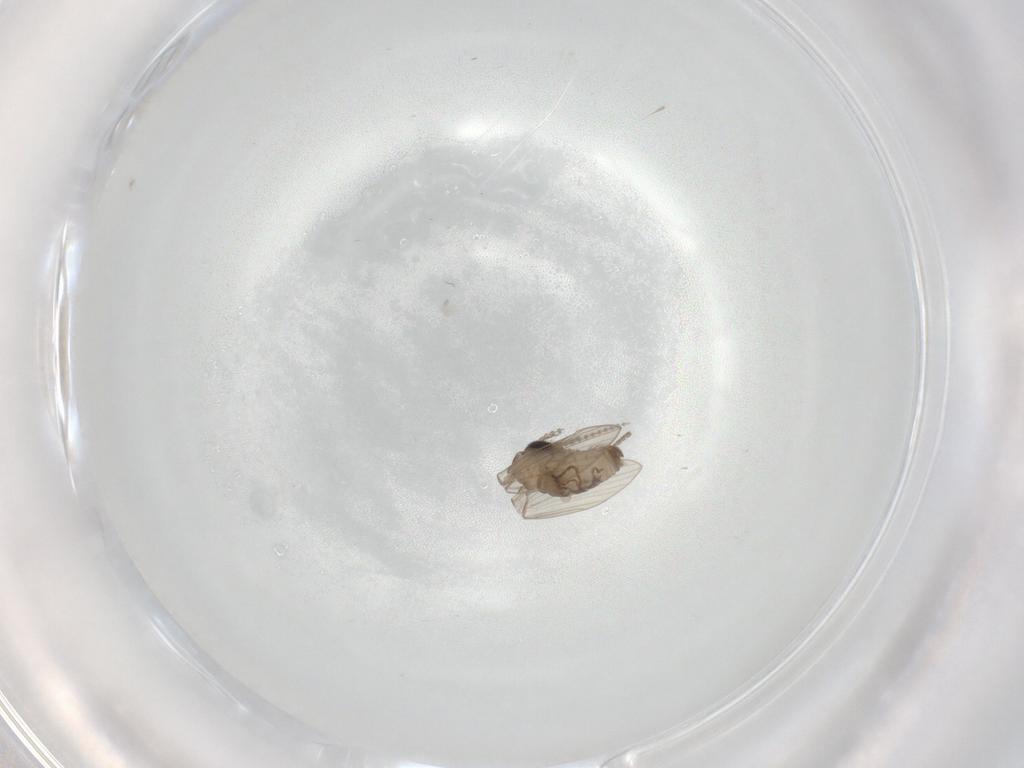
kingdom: Animalia
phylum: Arthropoda
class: Insecta
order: Diptera
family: Psychodidae
